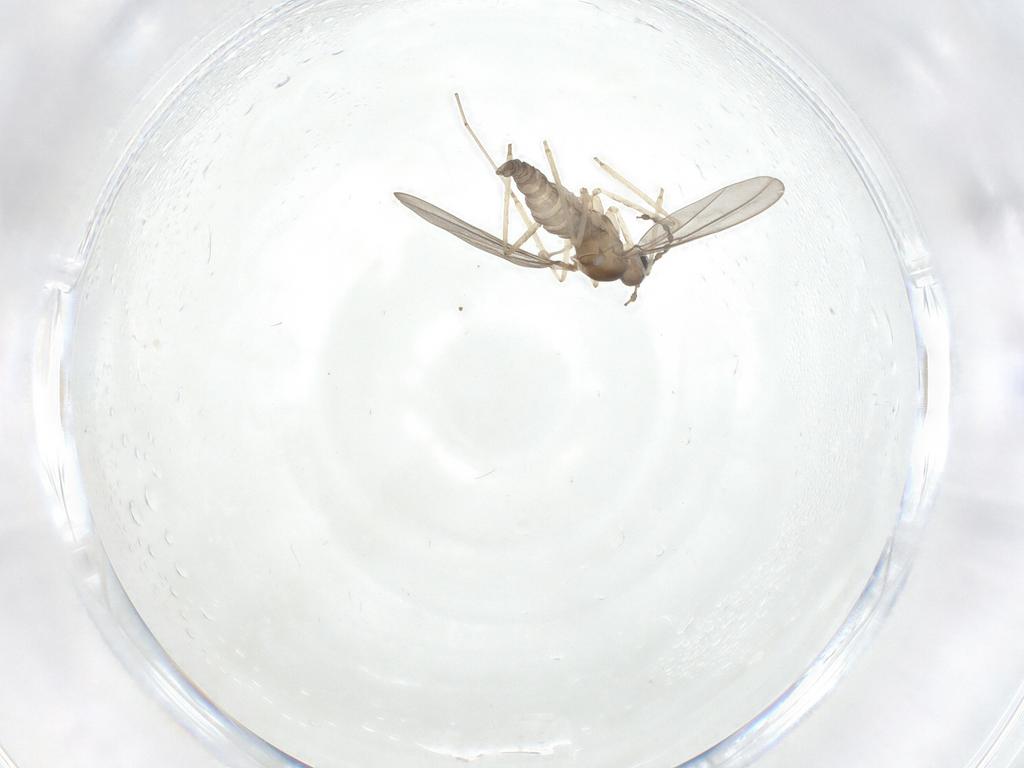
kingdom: Animalia
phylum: Arthropoda
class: Insecta
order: Diptera
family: Cecidomyiidae
